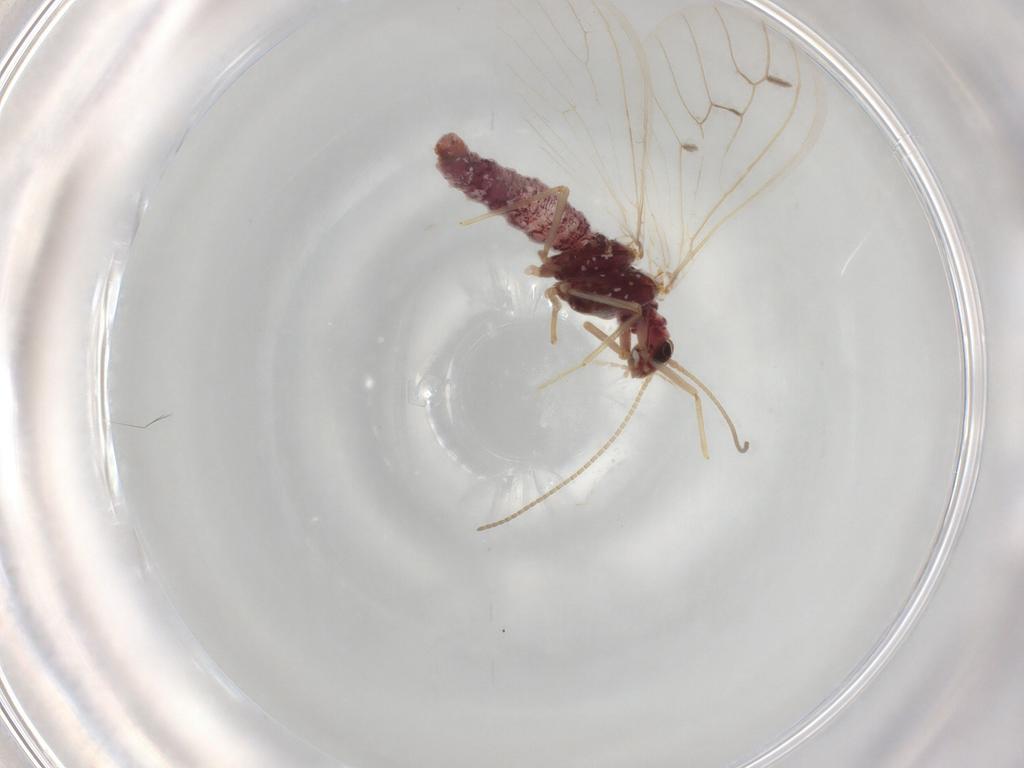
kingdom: Animalia
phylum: Arthropoda
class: Insecta
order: Neuroptera
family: Coniopterygidae
